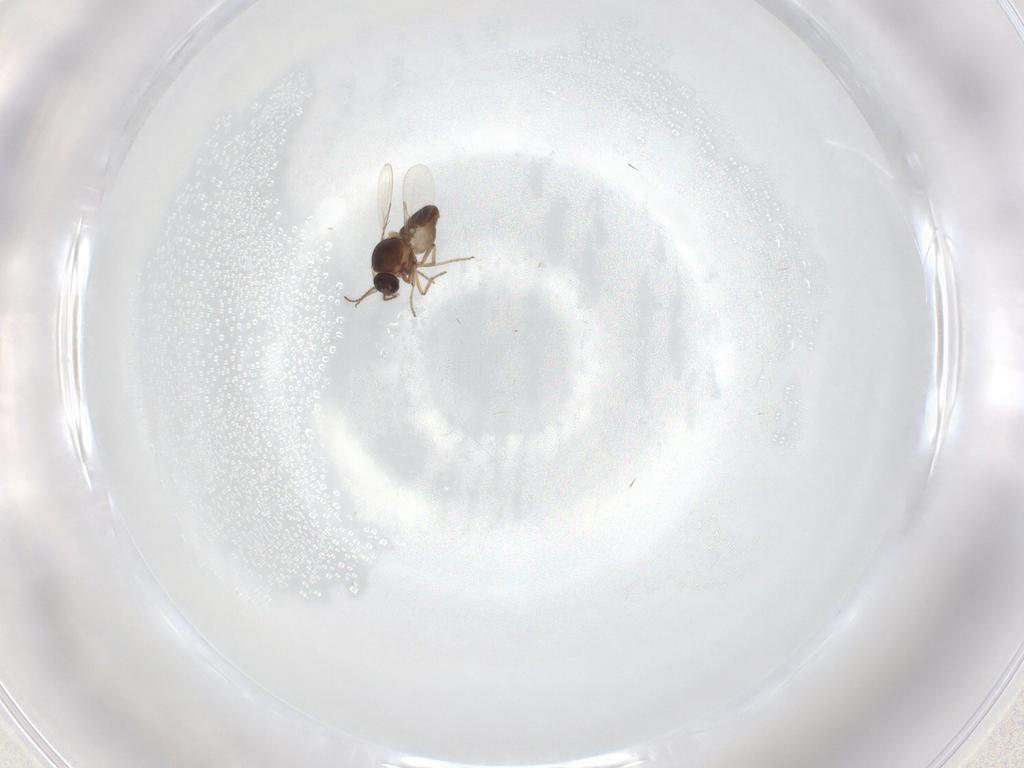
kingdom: Animalia
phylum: Arthropoda
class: Insecta
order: Diptera
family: Ceratopogonidae
